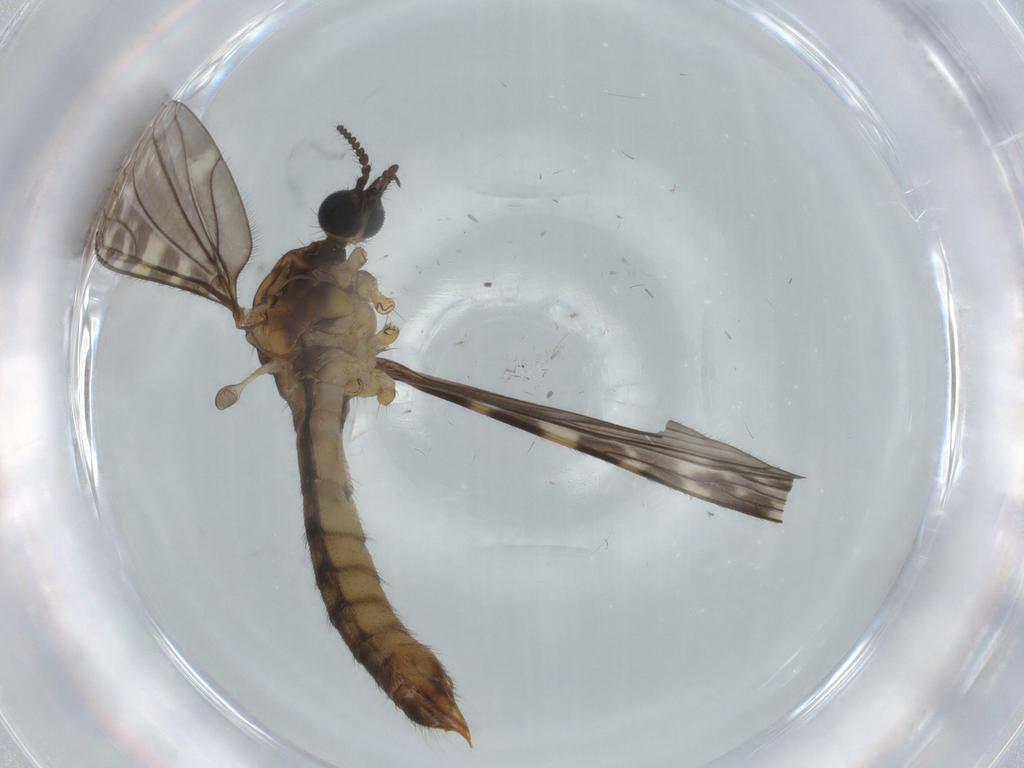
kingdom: Animalia
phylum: Arthropoda
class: Insecta
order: Diptera
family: Sciaridae
